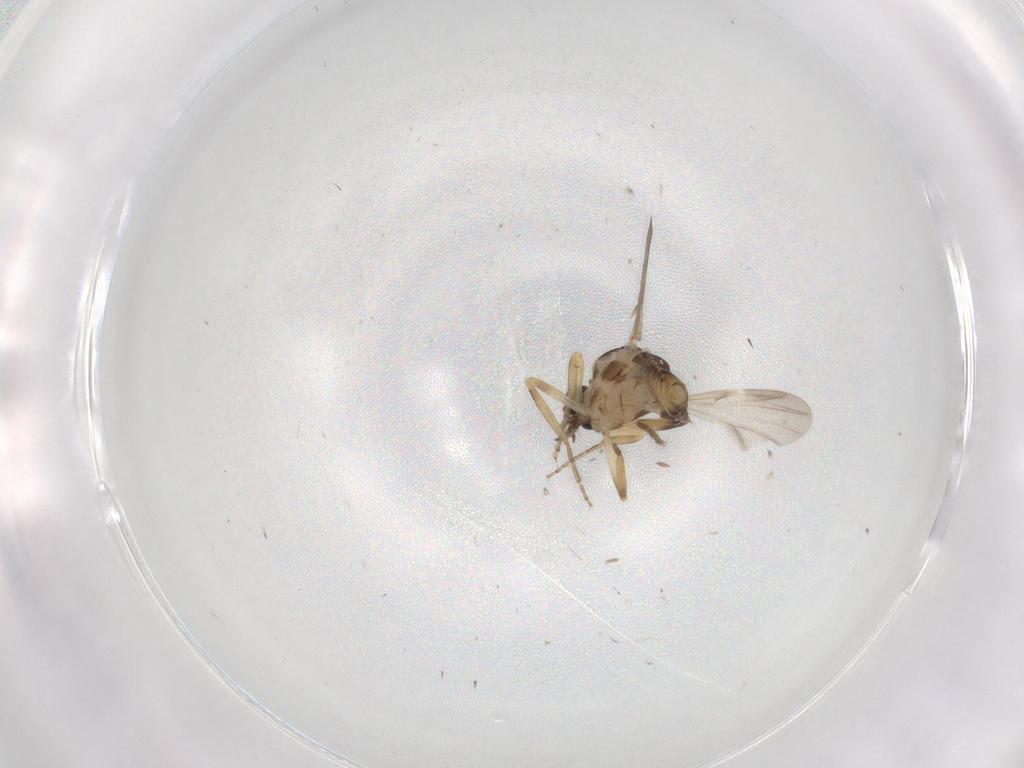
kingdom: Animalia
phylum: Arthropoda
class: Insecta
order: Diptera
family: Ceratopogonidae
